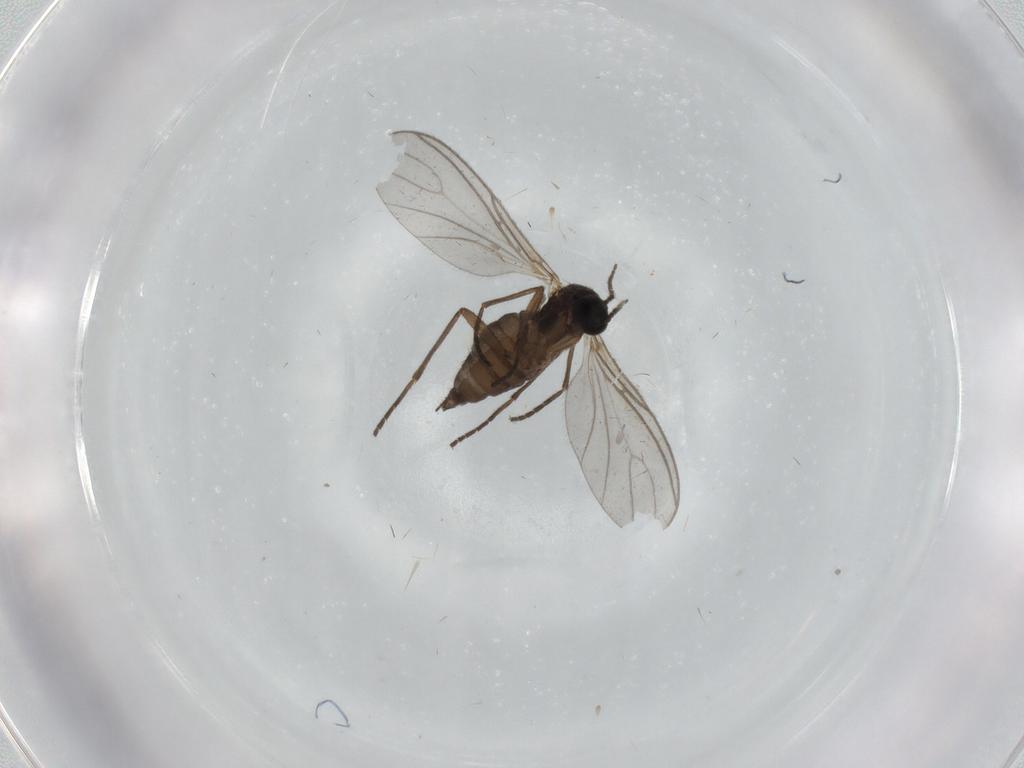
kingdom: Animalia
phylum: Arthropoda
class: Insecta
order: Diptera
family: Sciaridae
